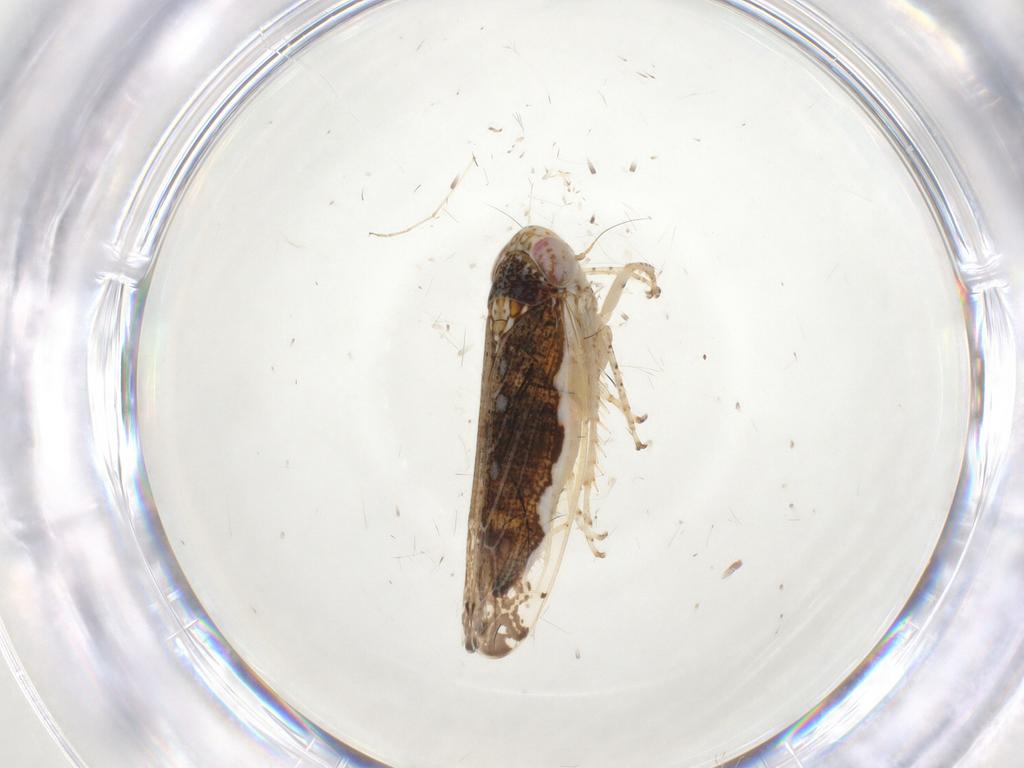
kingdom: Animalia
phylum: Arthropoda
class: Insecta
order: Hemiptera
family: Cicadellidae
